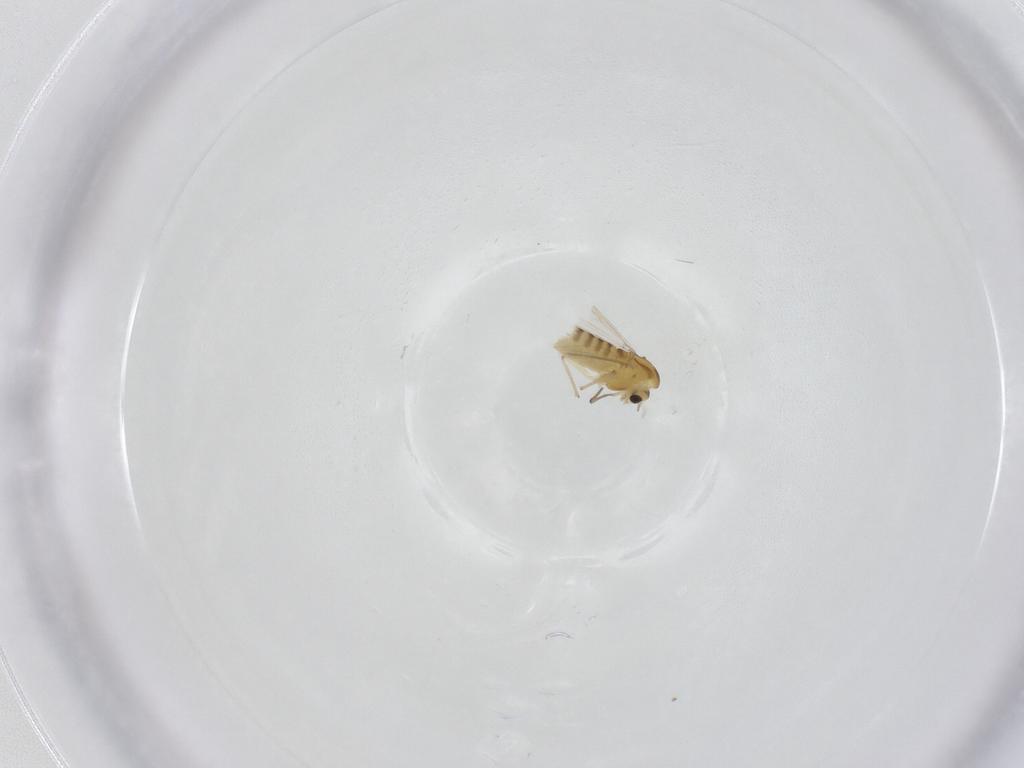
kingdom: Animalia
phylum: Arthropoda
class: Insecta
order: Diptera
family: Chironomidae
